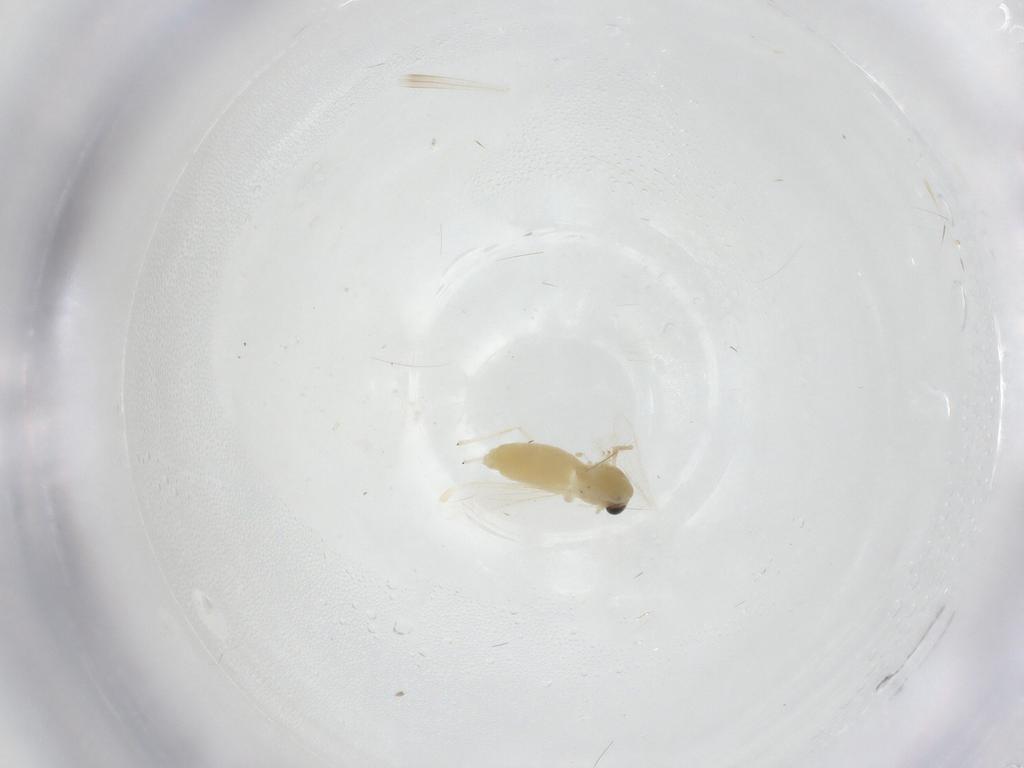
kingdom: Animalia
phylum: Arthropoda
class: Insecta
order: Diptera
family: Chironomidae
